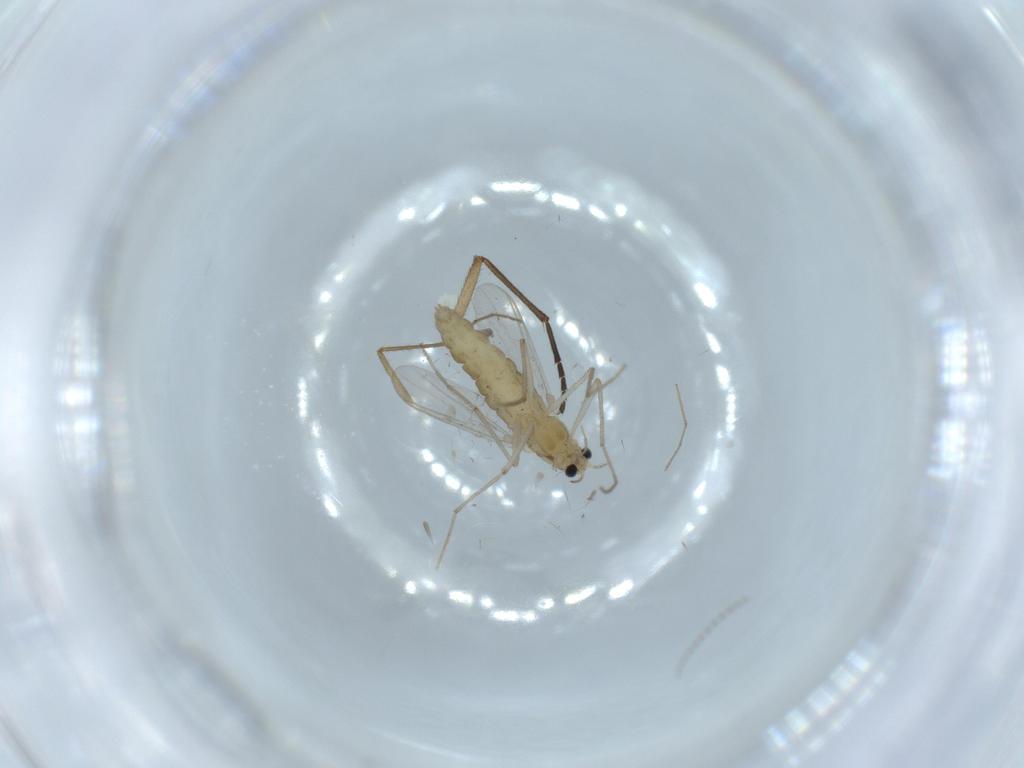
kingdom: Animalia
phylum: Arthropoda
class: Insecta
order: Diptera
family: Chironomidae
